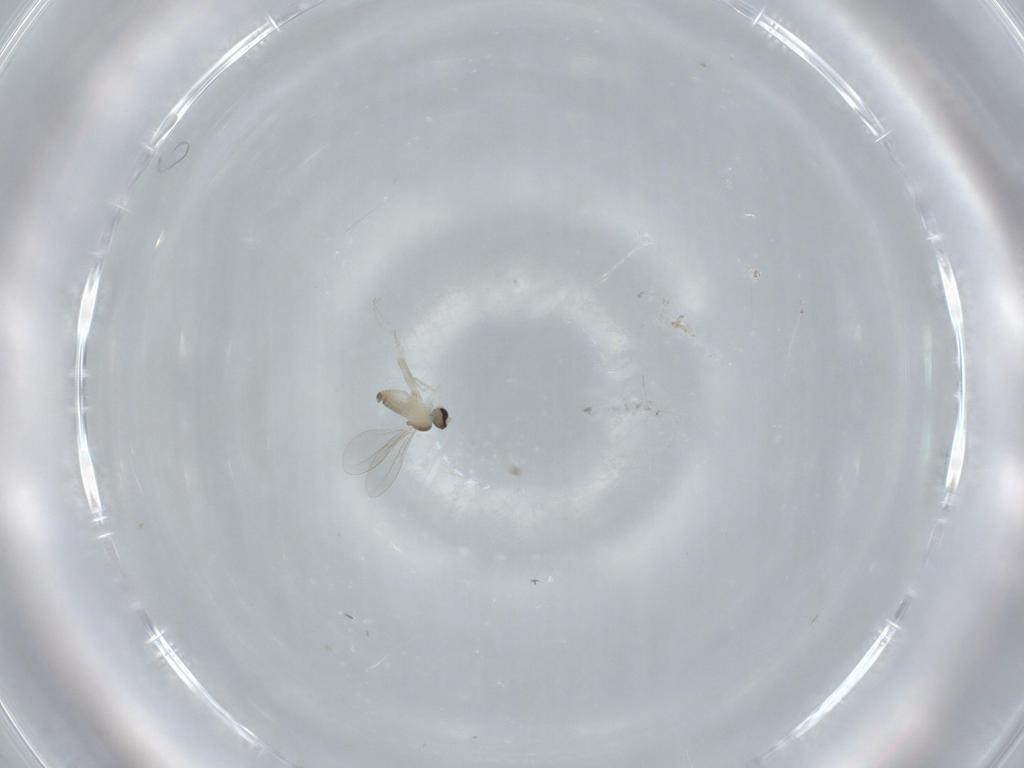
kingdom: Animalia
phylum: Arthropoda
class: Insecta
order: Diptera
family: Cecidomyiidae
